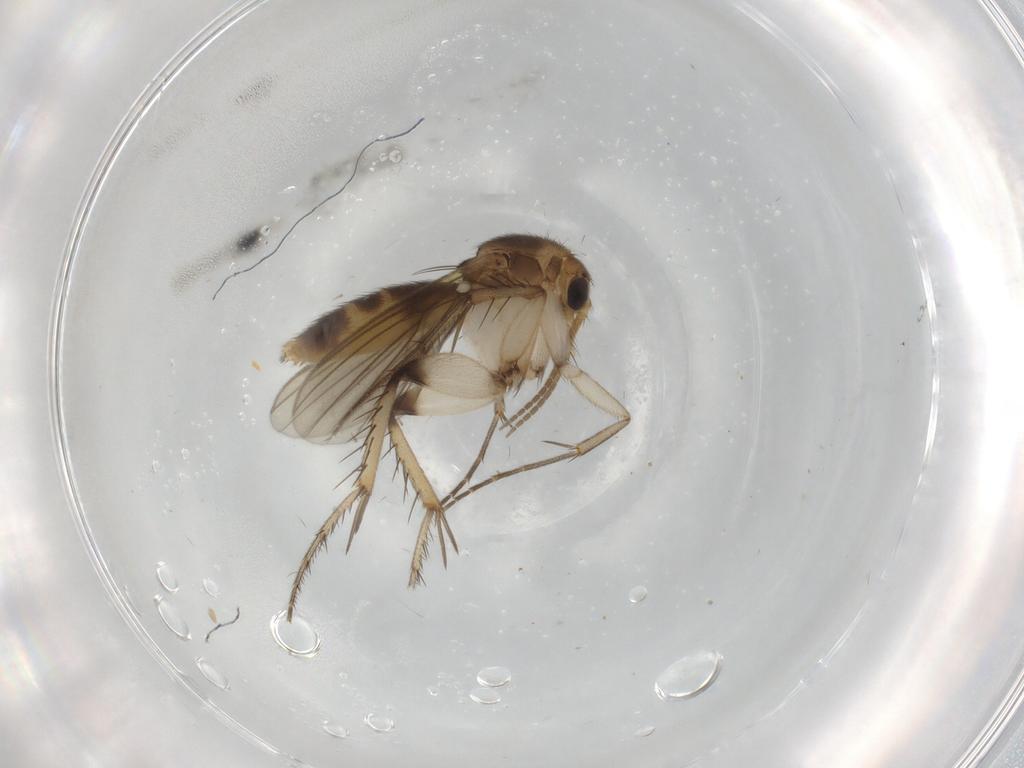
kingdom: Animalia
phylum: Arthropoda
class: Insecta
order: Diptera
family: Mycetophilidae
